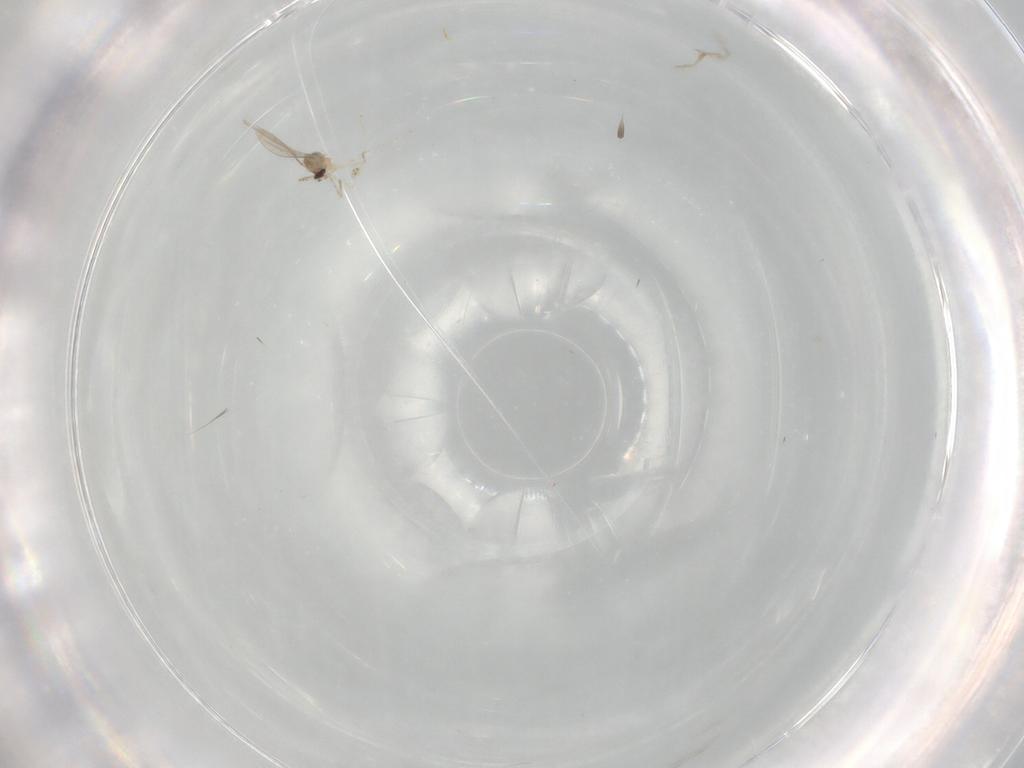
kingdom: Animalia
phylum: Arthropoda
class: Insecta
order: Diptera
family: Cecidomyiidae
